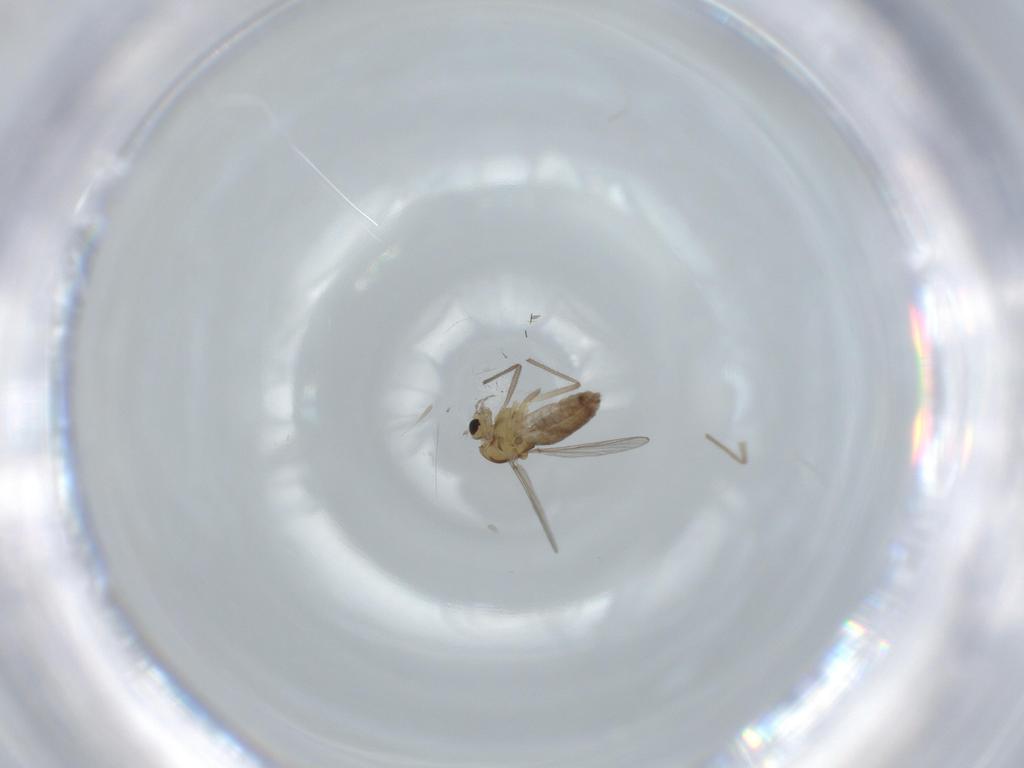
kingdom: Animalia
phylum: Arthropoda
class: Insecta
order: Diptera
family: Chironomidae
